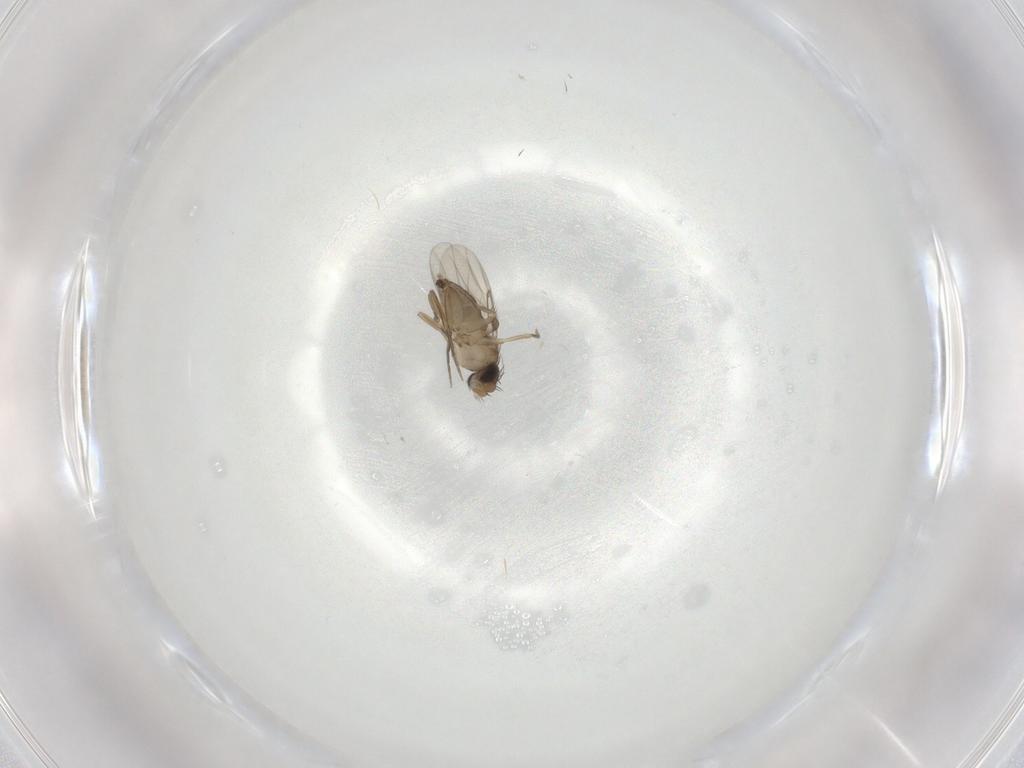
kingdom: Animalia
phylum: Arthropoda
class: Insecta
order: Diptera
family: Phoridae
